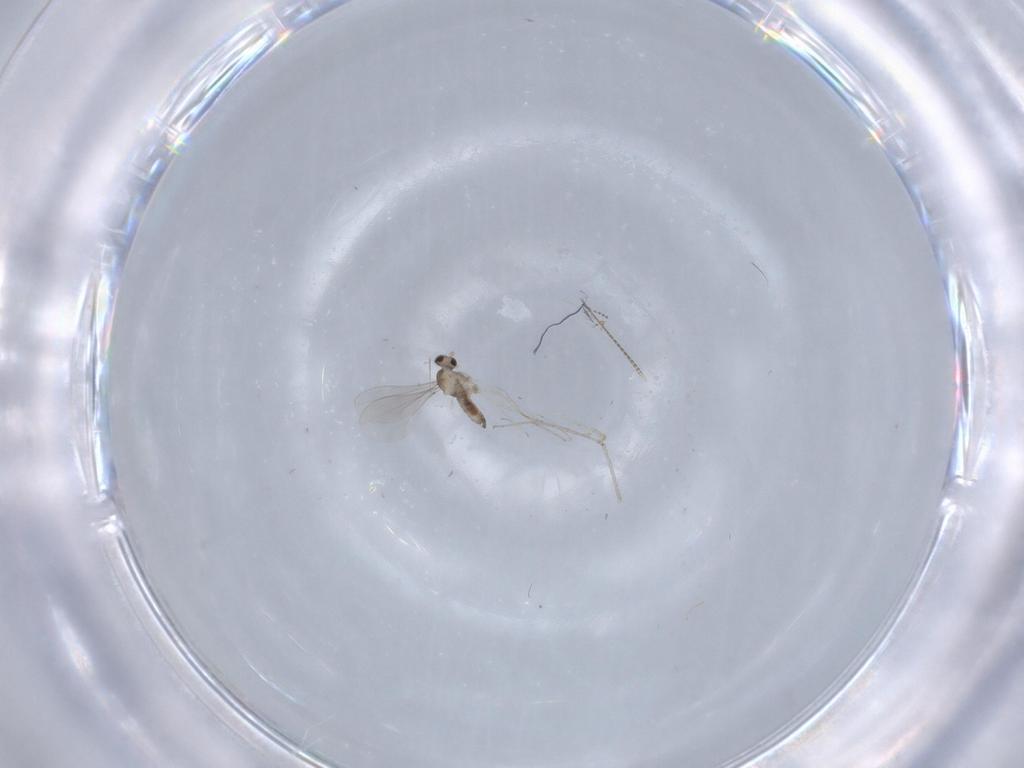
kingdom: Animalia
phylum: Arthropoda
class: Insecta
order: Diptera
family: Cecidomyiidae
